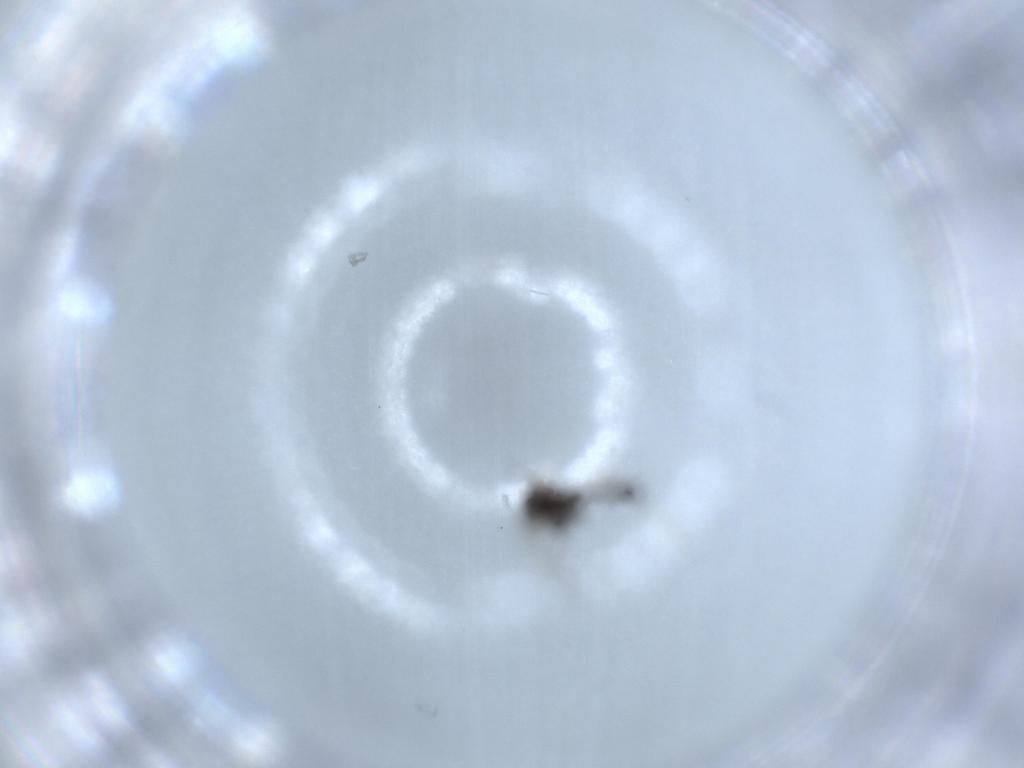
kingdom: Animalia
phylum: Arthropoda
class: Insecta
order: Diptera
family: Chironomidae
